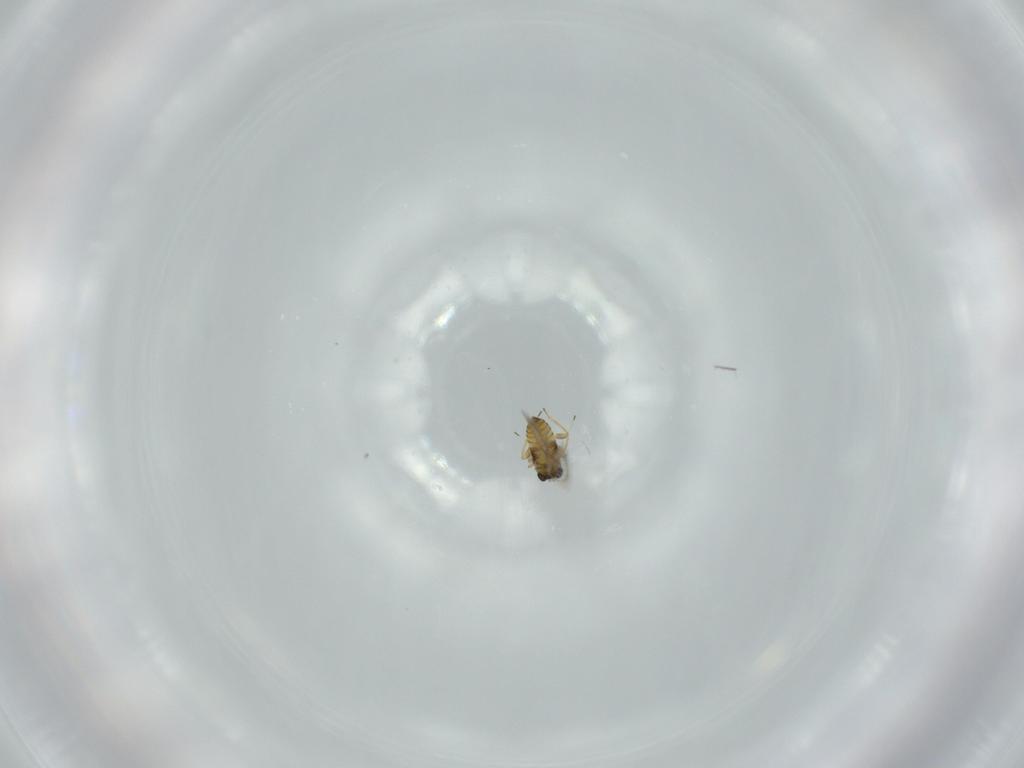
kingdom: Animalia
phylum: Arthropoda
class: Insecta
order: Hymenoptera
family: Trichogrammatidae
